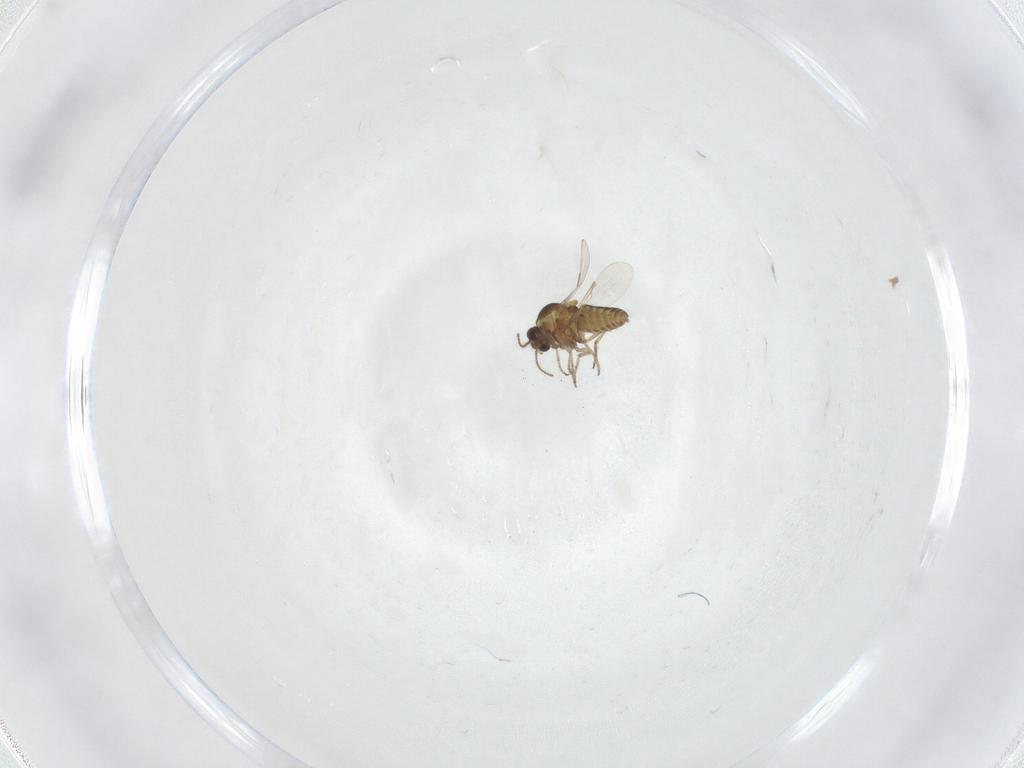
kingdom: Animalia
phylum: Arthropoda
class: Insecta
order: Diptera
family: Ceratopogonidae
